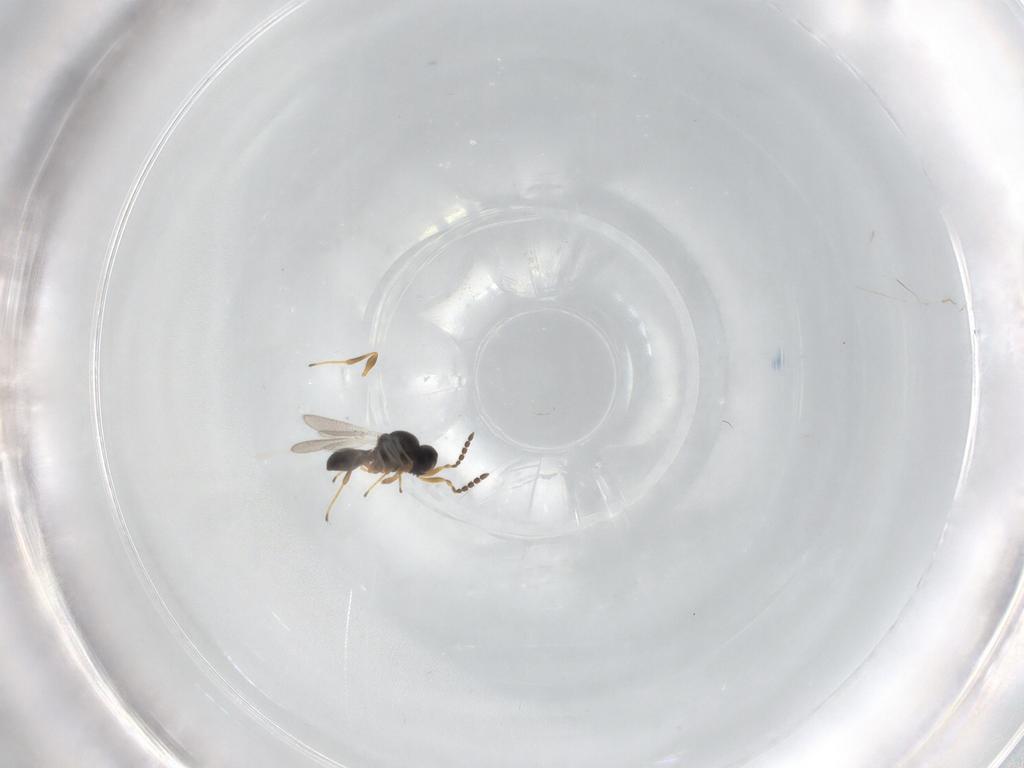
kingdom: Animalia
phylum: Arthropoda
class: Insecta
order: Hymenoptera
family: Platygastridae
